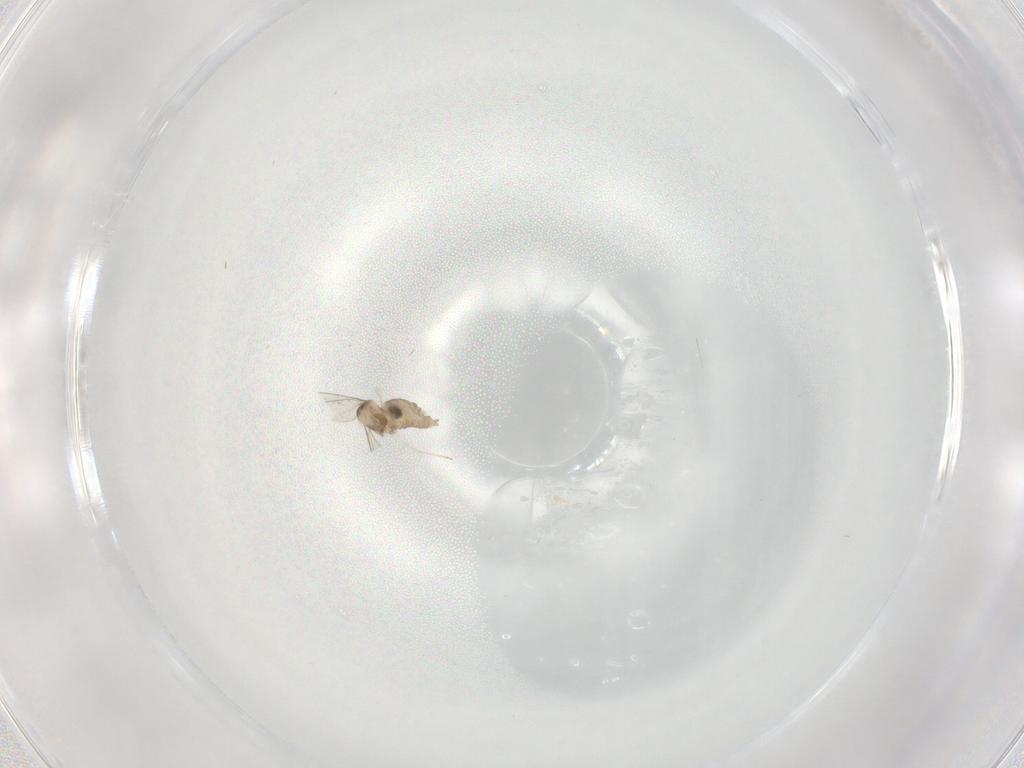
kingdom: Animalia
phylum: Arthropoda
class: Insecta
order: Diptera
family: Cecidomyiidae
